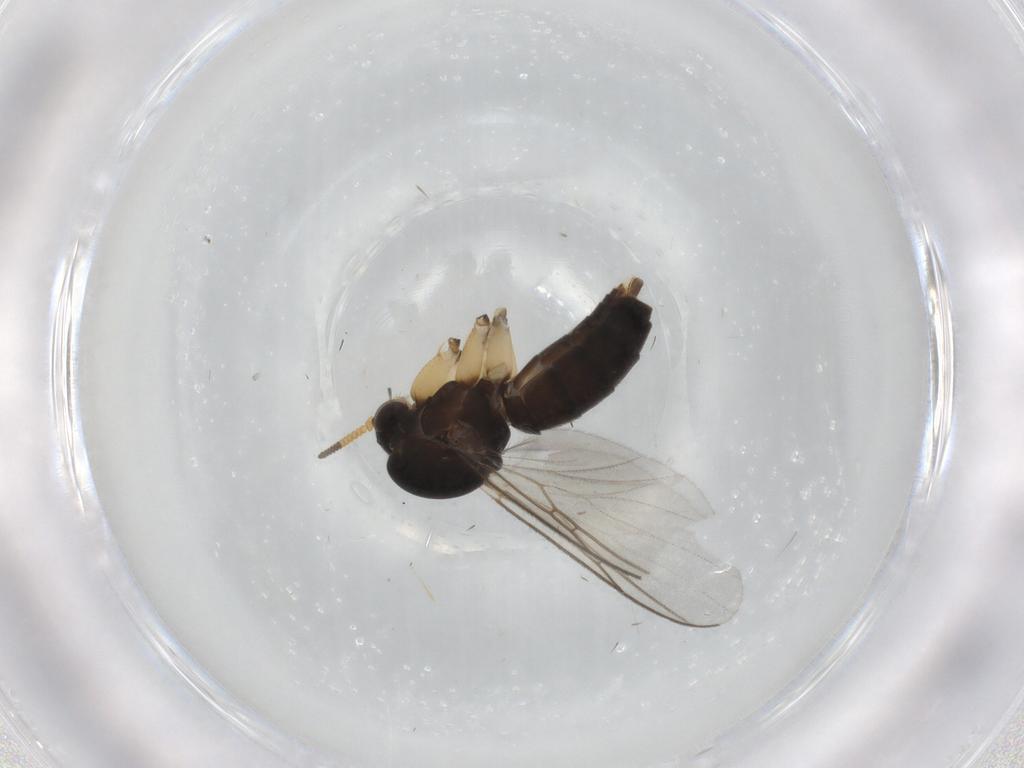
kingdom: Animalia
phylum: Arthropoda
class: Insecta
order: Diptera
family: Mycetophilidae
